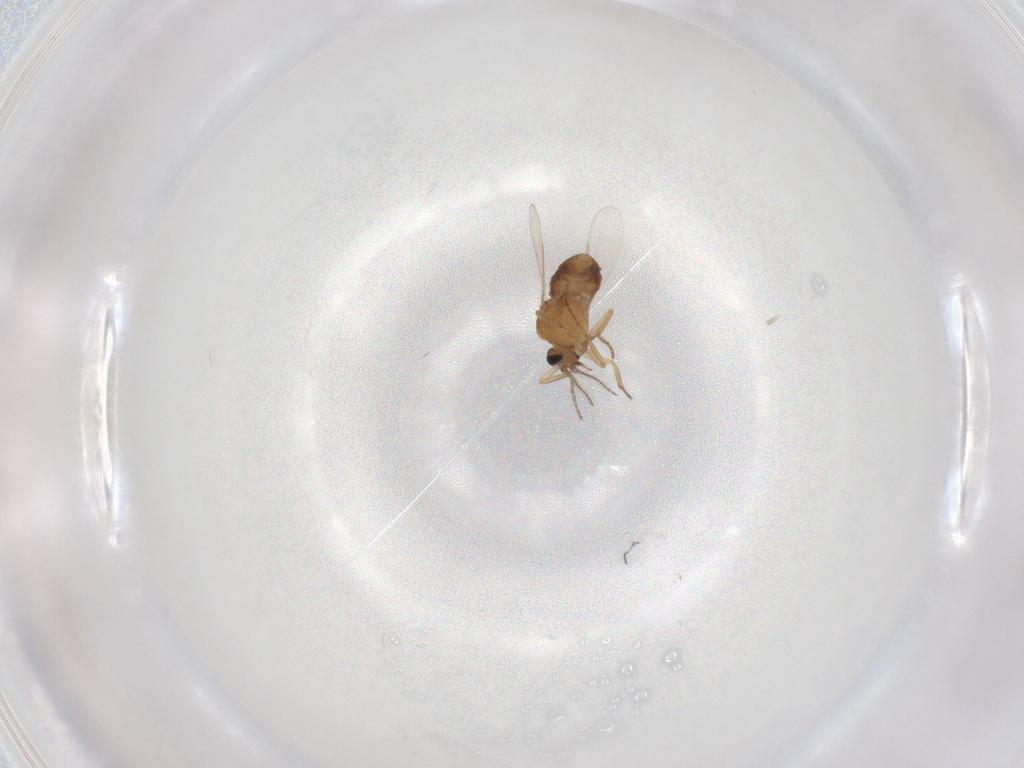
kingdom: Animalia
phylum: Arthropoda
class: Insecta
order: Diptera
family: Ceratopogonidae
